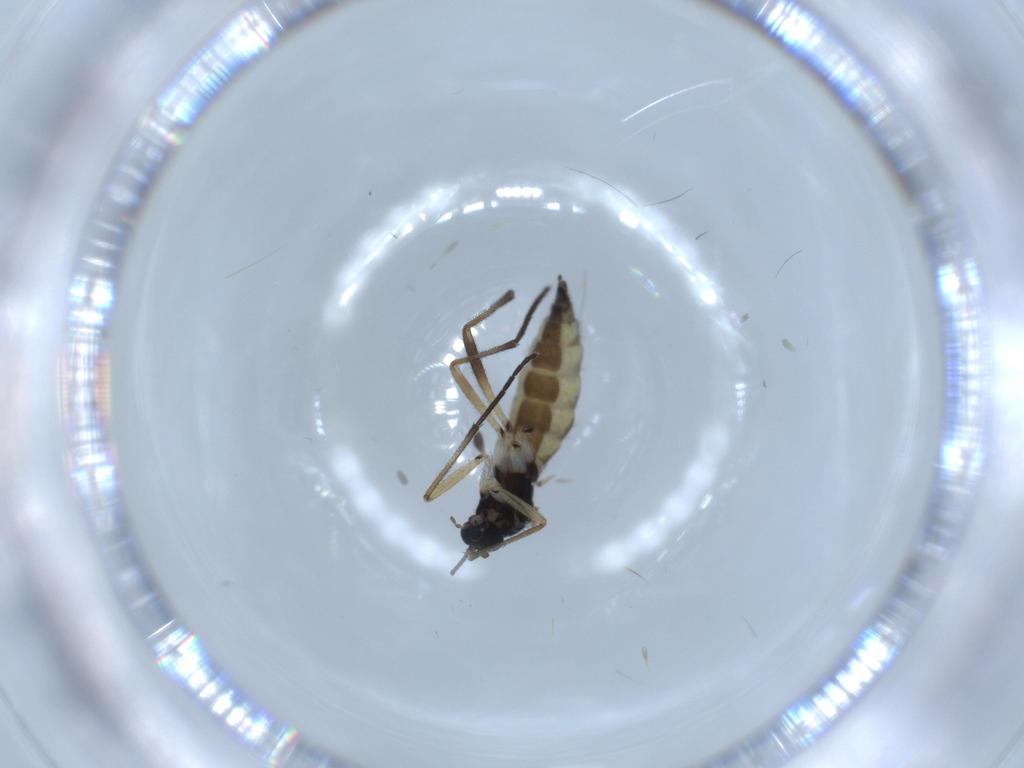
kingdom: Animalia
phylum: Arthropoda
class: Insecta
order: Diptera
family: Sciaridae
